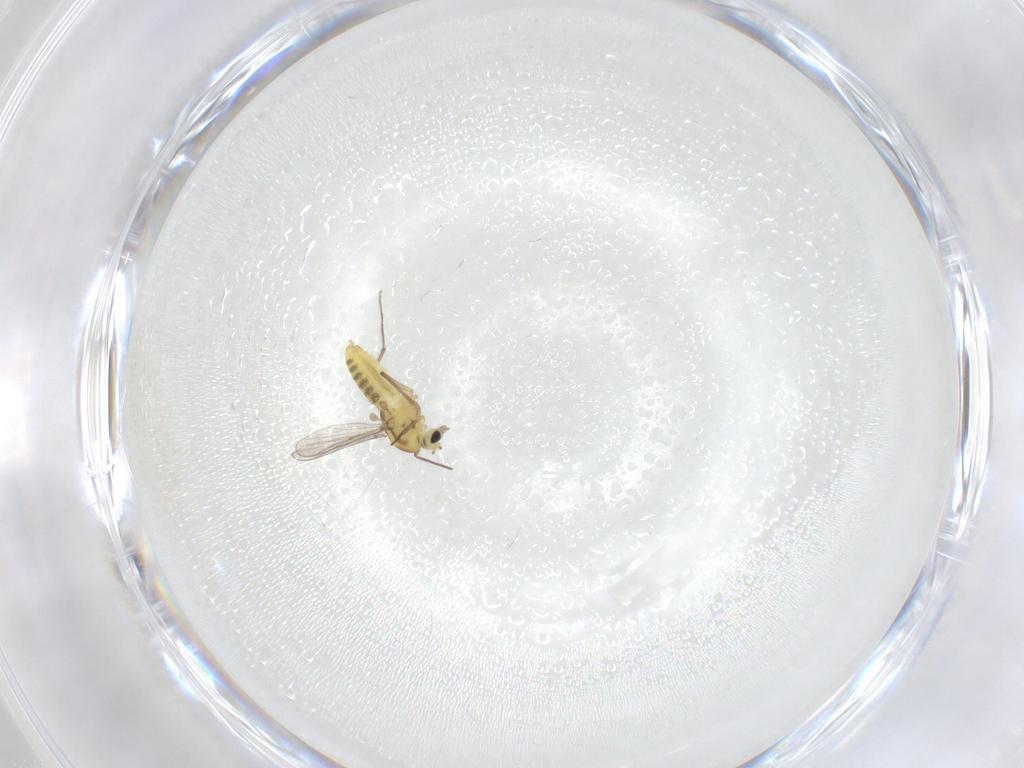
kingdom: Animalia
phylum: Arthropoda
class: Insecta
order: Diptera
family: Chironomidae
